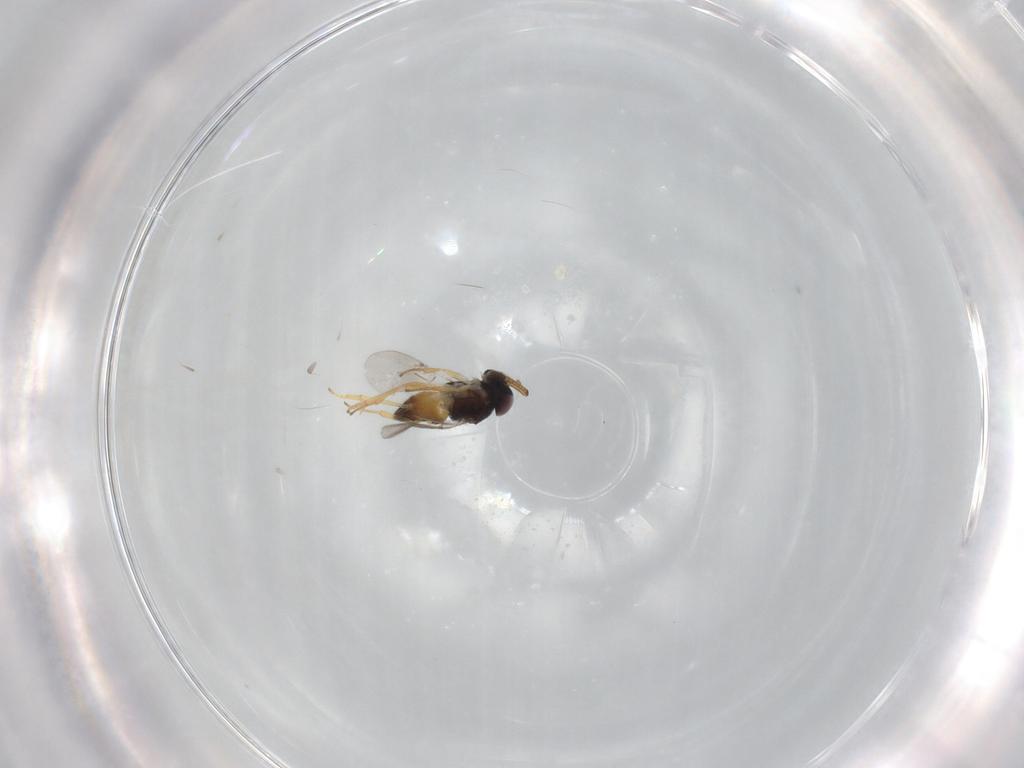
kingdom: Animalia
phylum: Arthropoda
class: Insecta
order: Hymenoptera
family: Encyrtidae
